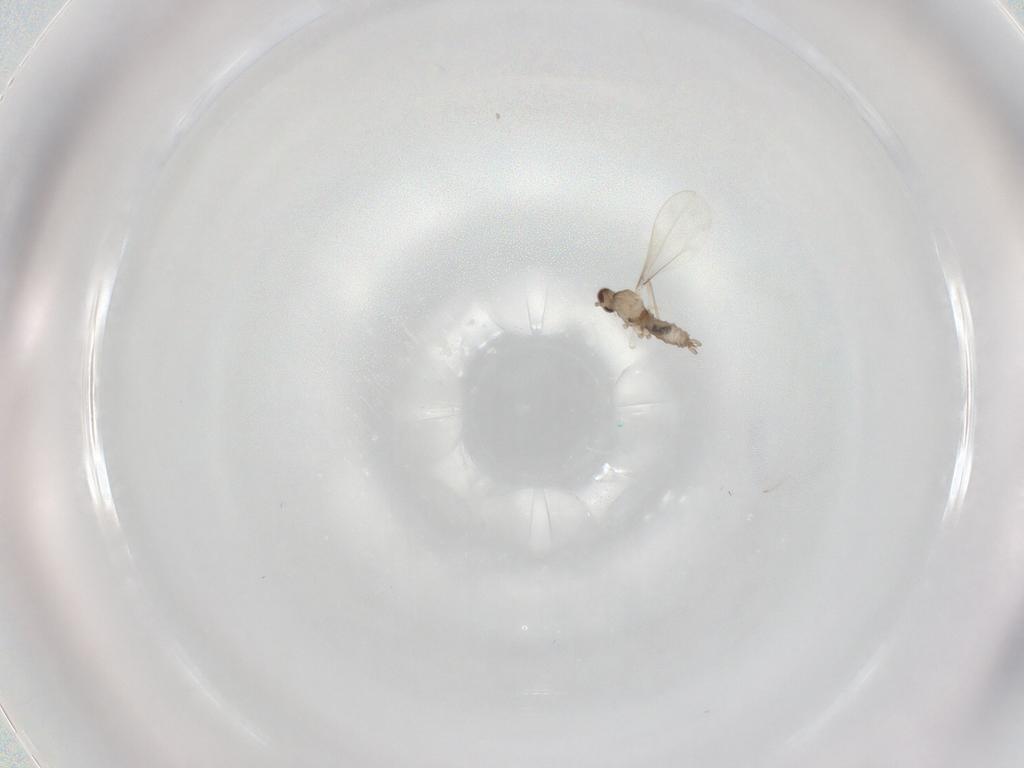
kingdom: Animalia
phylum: Arthropoda
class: Insecta
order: Diptera
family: Cecidomyiidae
